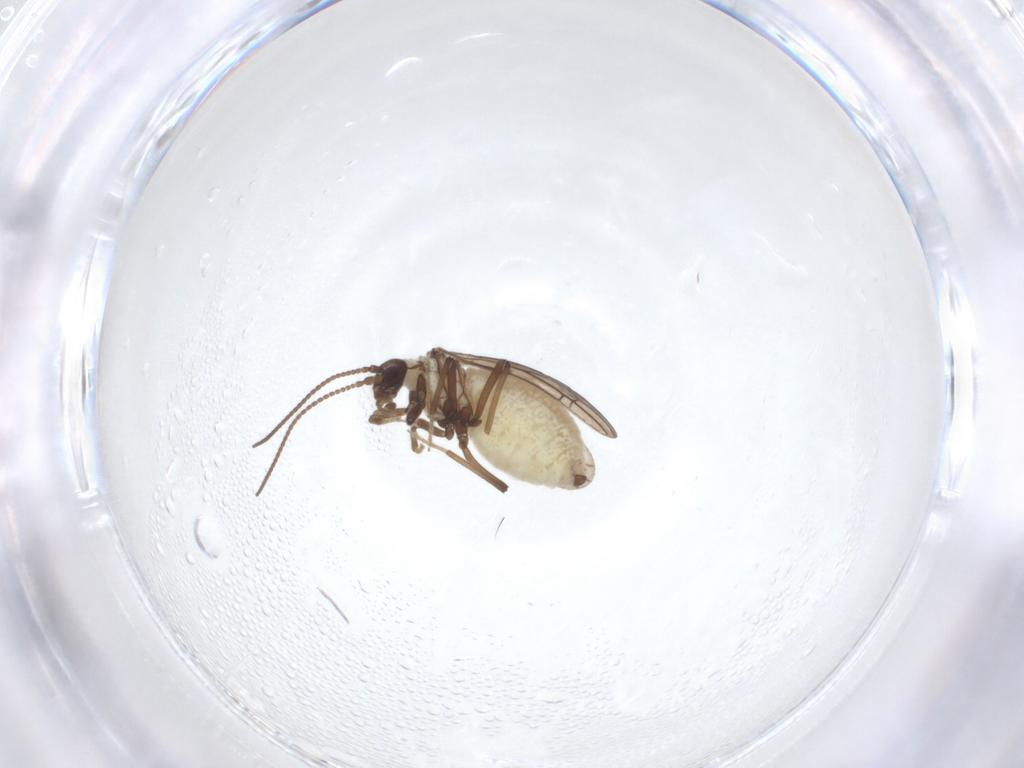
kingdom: Animalia
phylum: Arthropoda
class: Insecta
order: Neuroptera
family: Coniopterygidae
